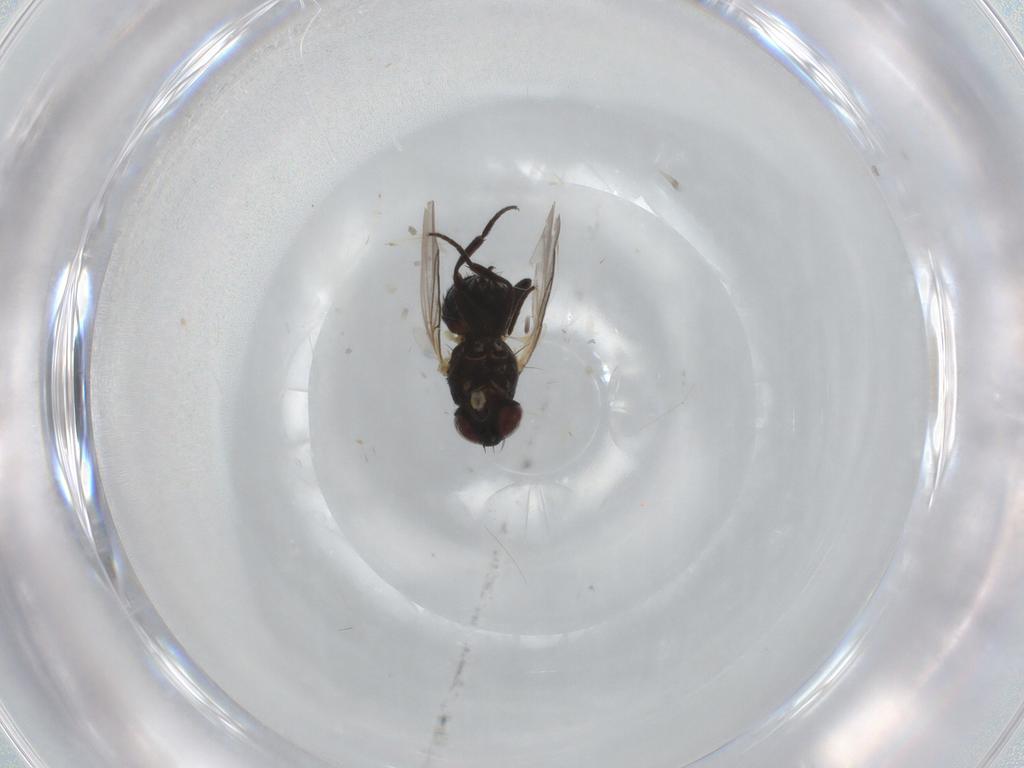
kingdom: Animalia
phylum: Arthropoda
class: Insecta
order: Diptera
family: Agromyzidae
